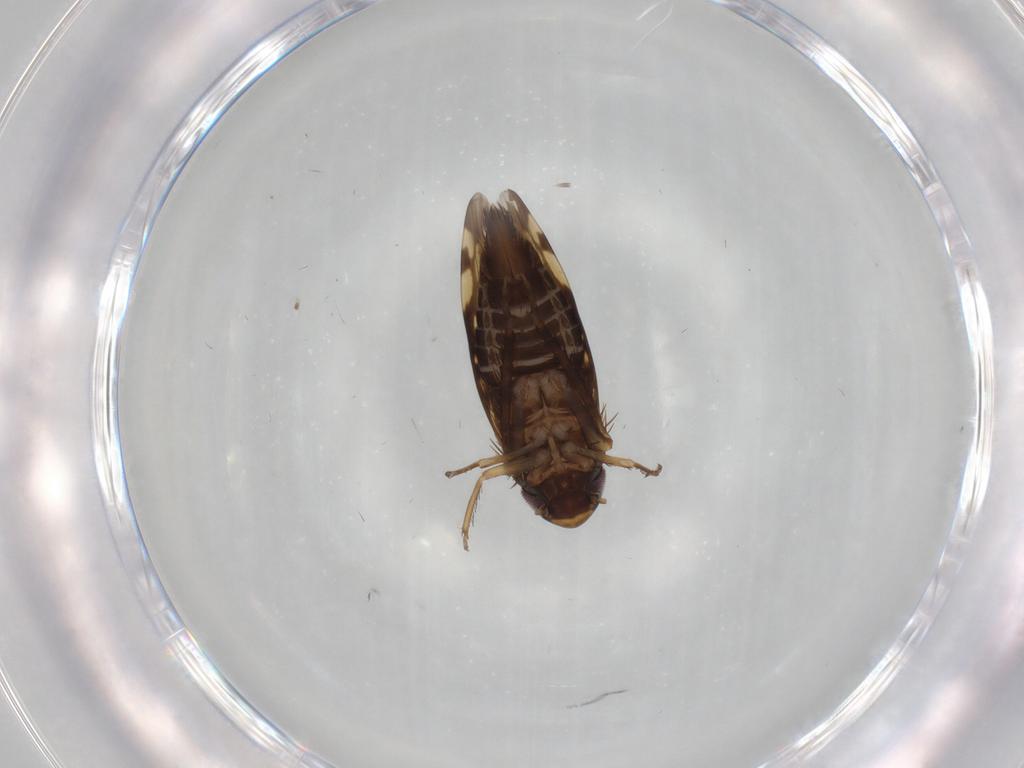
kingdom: Animalia
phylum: Arthropoda
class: Insecta
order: Hemiptera
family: Cicadellidae
